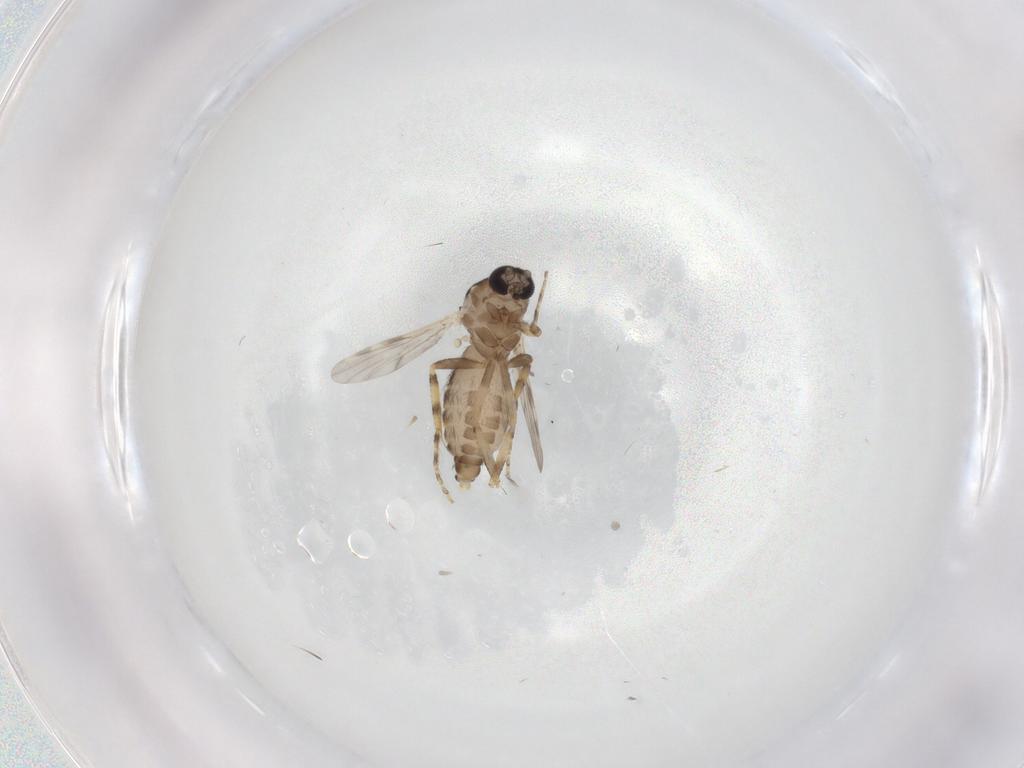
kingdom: Animalia
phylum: Arthropoda
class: Insecta
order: Diptera
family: Ceratopogonidae
